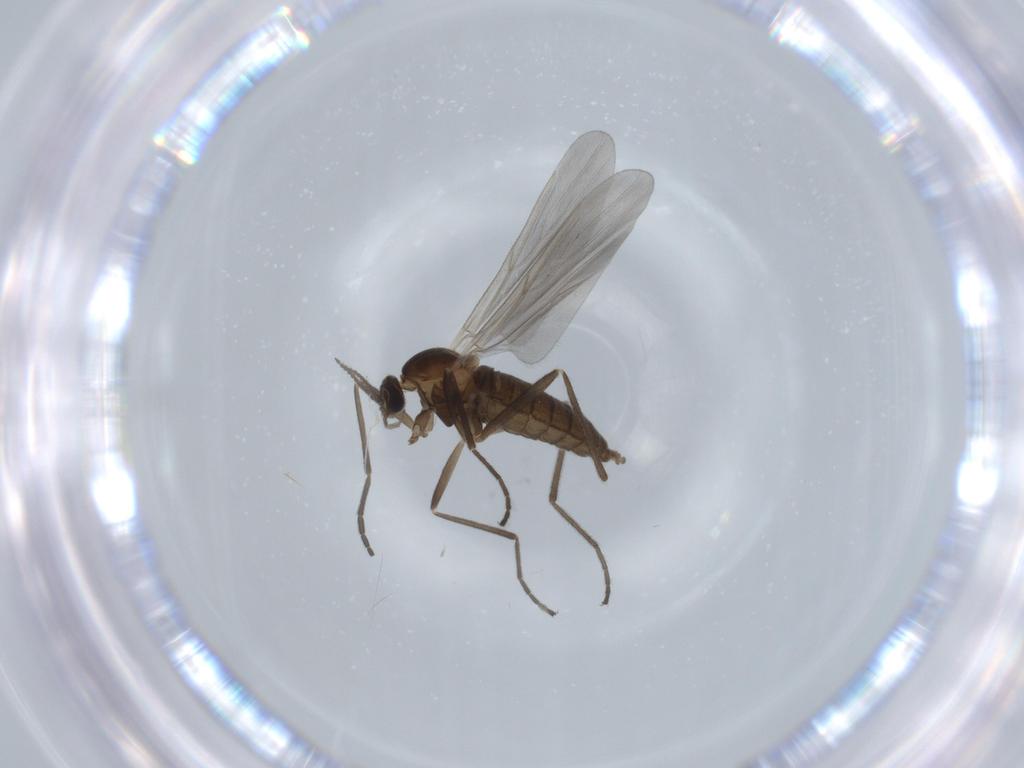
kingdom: Animalia
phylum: Arthropoda
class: Insecta
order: Diptera
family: Cecidomyiidae
